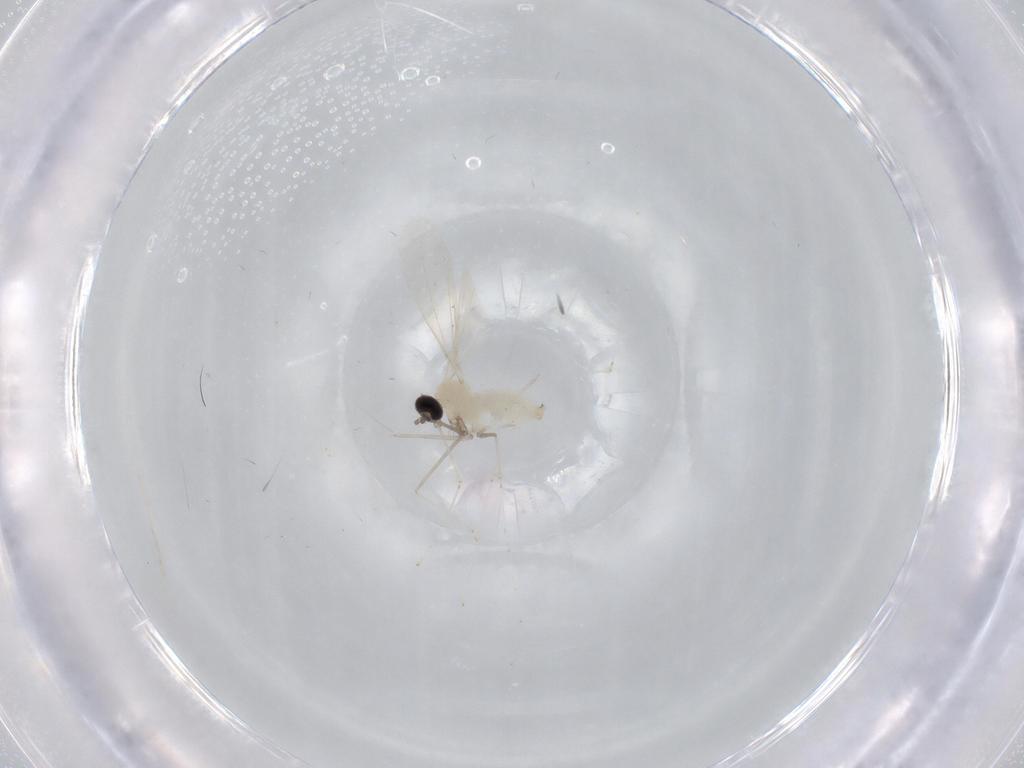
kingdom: Animalia
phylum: Arthropoda
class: Insecta
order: Diptera
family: Cecidomyiidae
